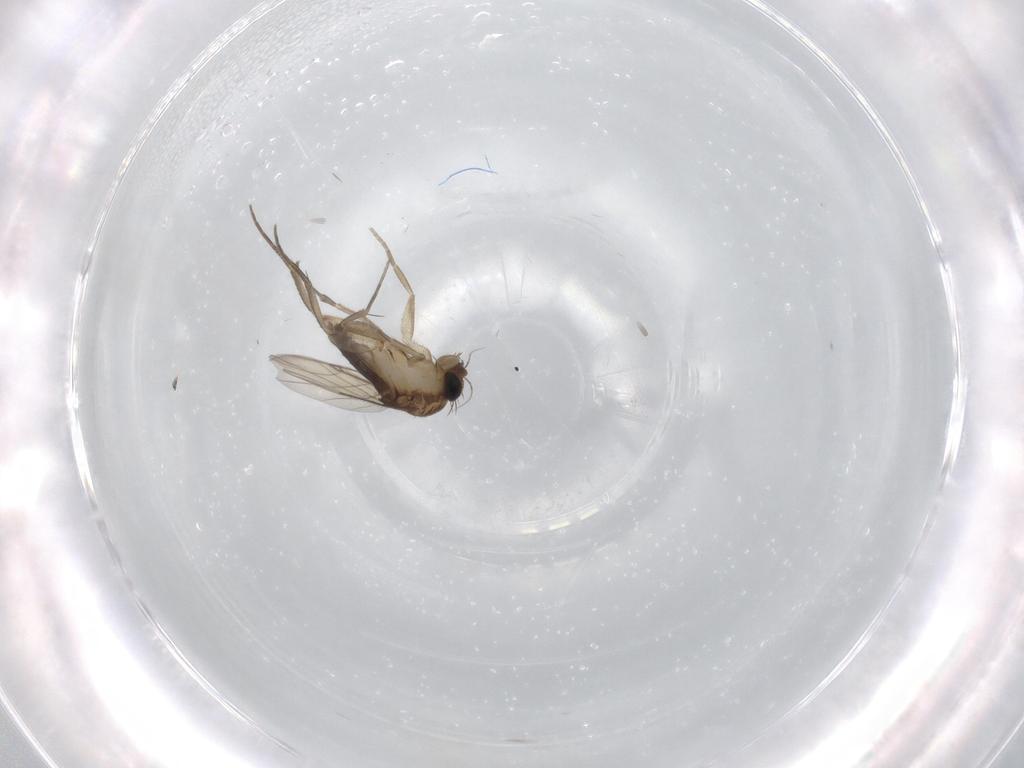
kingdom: Animalia
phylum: Arthropoda
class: Insecta
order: Diptera
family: Phoridae
